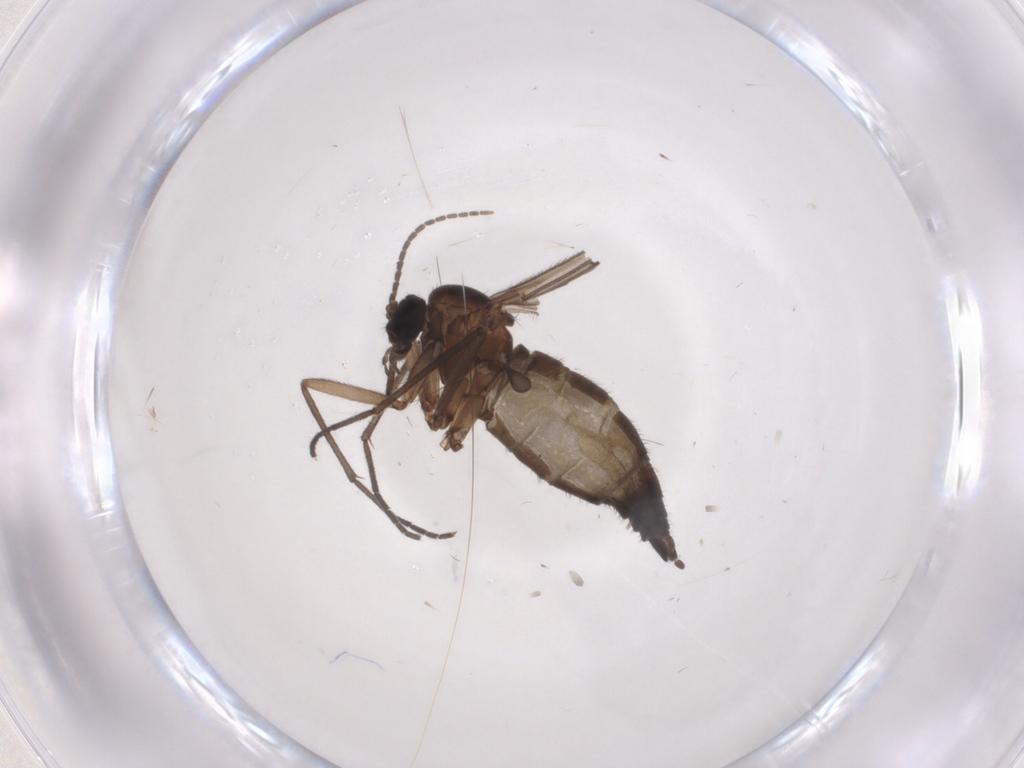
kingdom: Animalia
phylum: Arthropoda
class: Insecta
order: Diptera
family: Sciaridae
